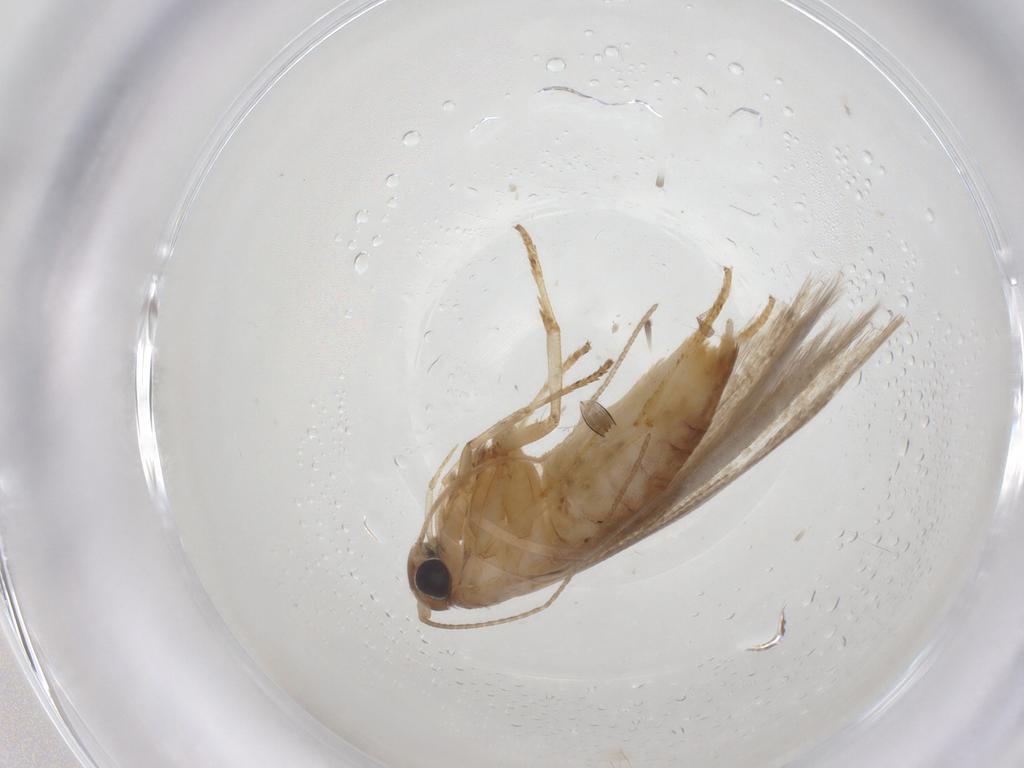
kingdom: Animalia
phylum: Arthropoda
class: Insecta
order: Lepidoptera
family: Blastobasidae
